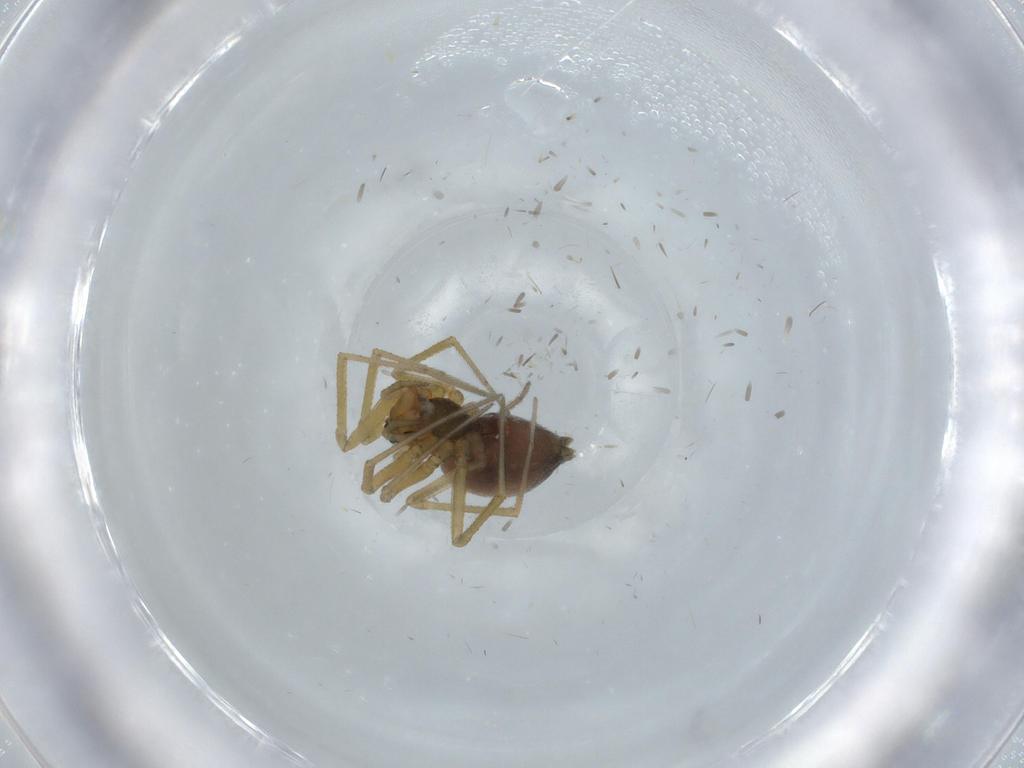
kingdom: Animalia
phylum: Arthropoda
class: Arachnida
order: Araneae
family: Linyphiidae
